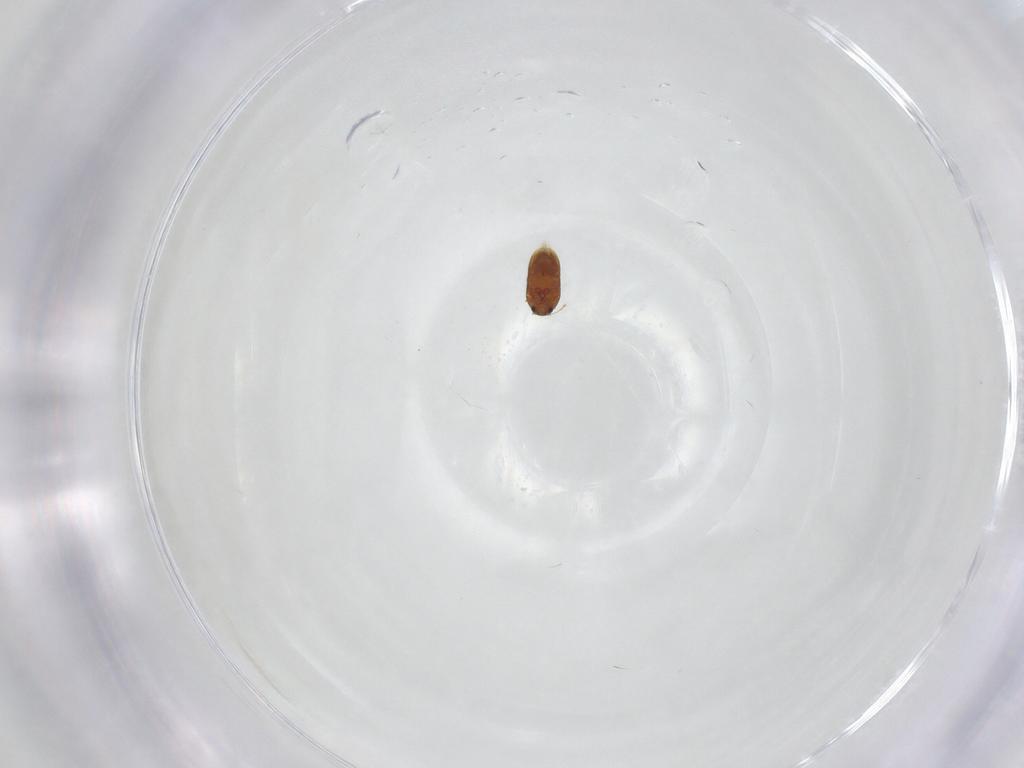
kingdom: Animalia
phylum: Arthropoda
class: Insecta
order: Coleoptera
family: Ptiliidae
